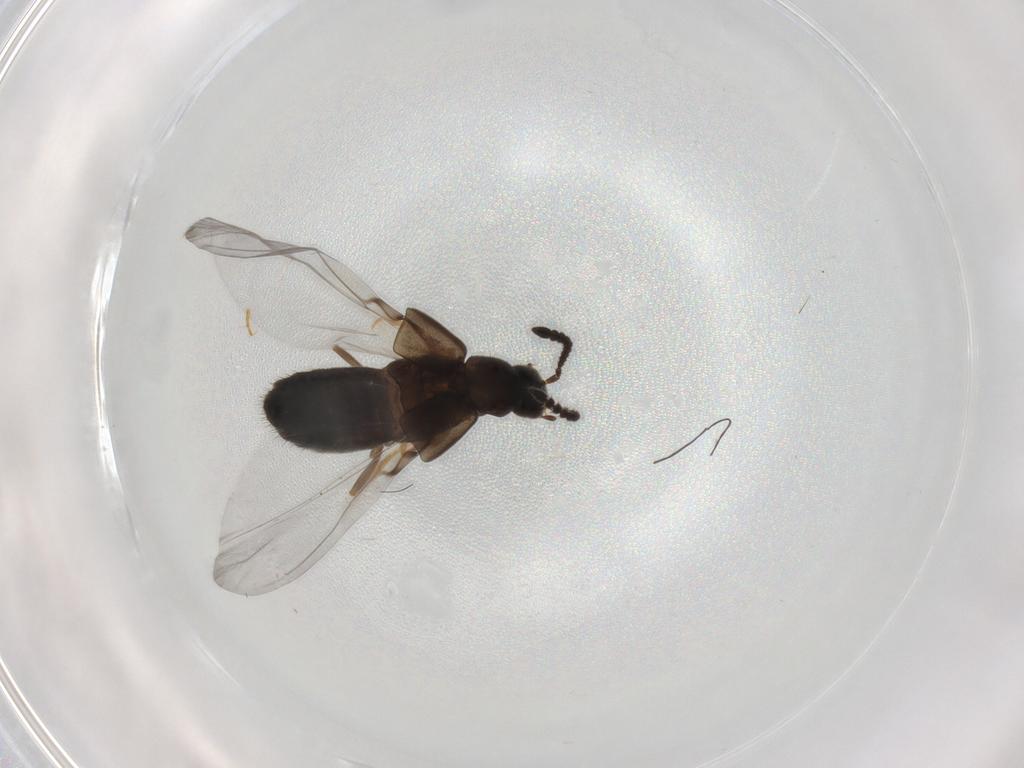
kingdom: Animalia
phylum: Arthropoda
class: Insecta
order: Coleoptera
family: Staphylinidae
